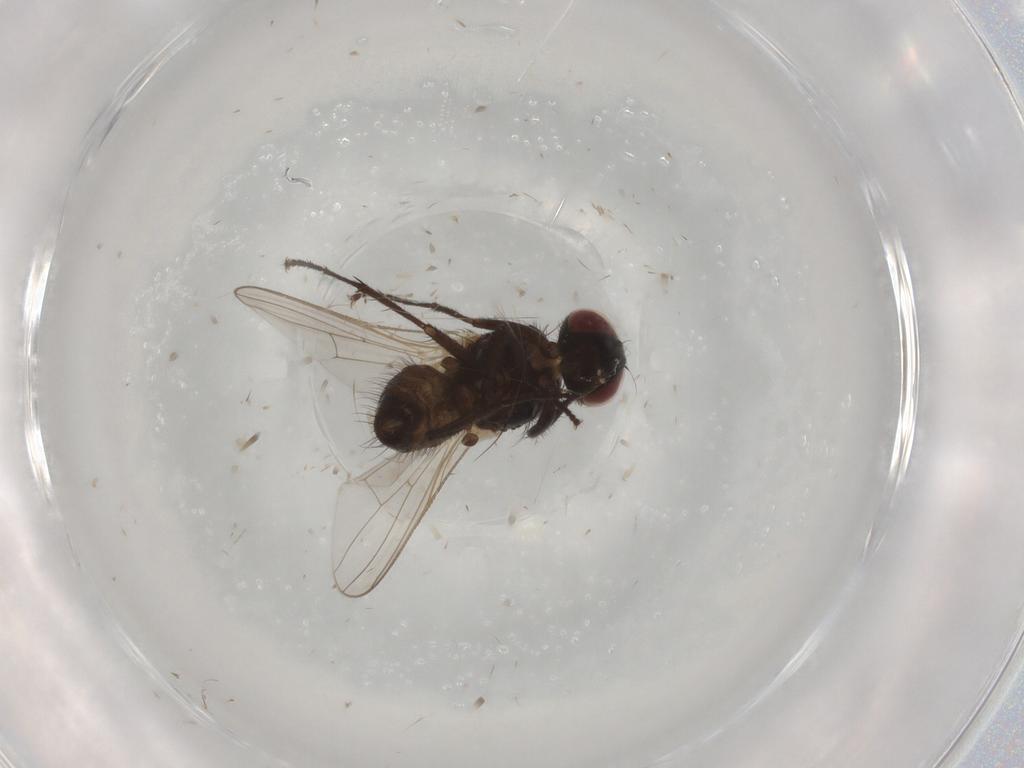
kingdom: Animalia
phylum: Arthropoda
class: Insecta
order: Diptera
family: Muscidae
